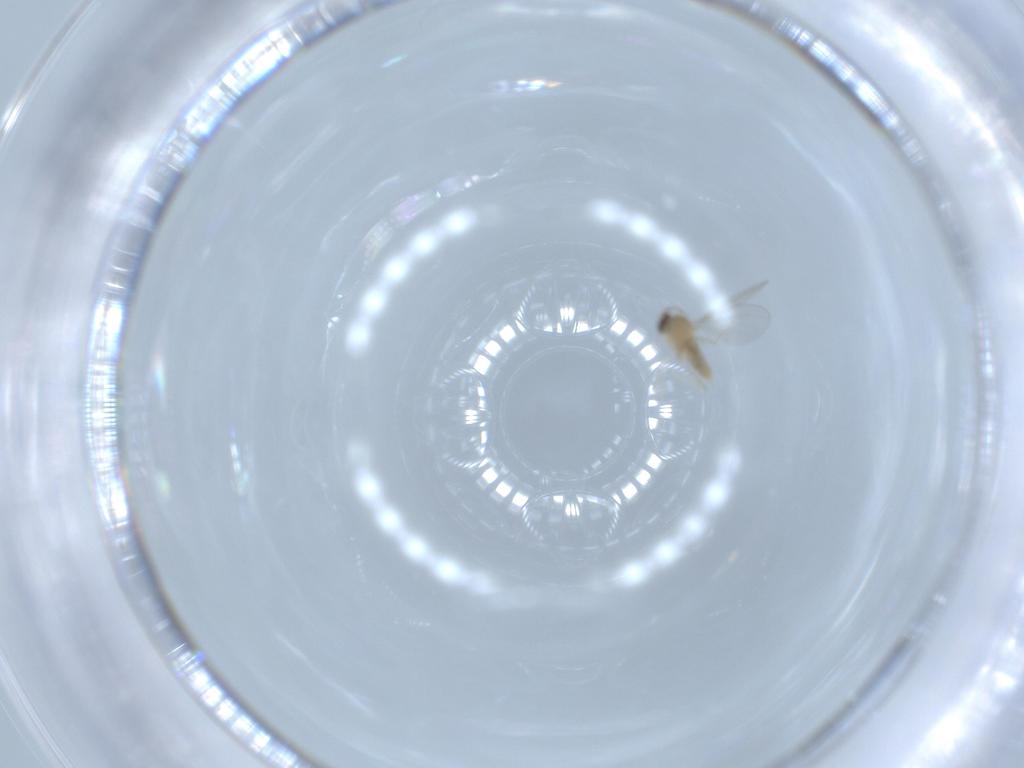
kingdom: Animalia
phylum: Arthropoda
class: Insecta
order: Diptera
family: Cecidomyiidae
